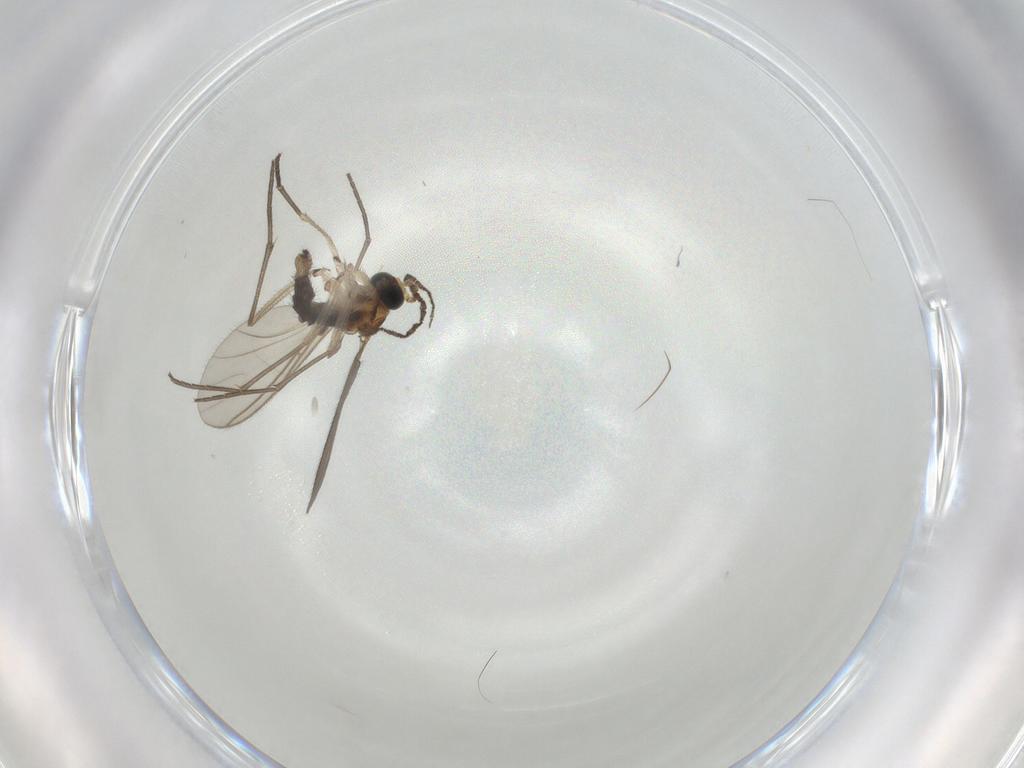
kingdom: Animalia
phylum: Arthropoda
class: Insecta
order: Diptera
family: Sciaridae
